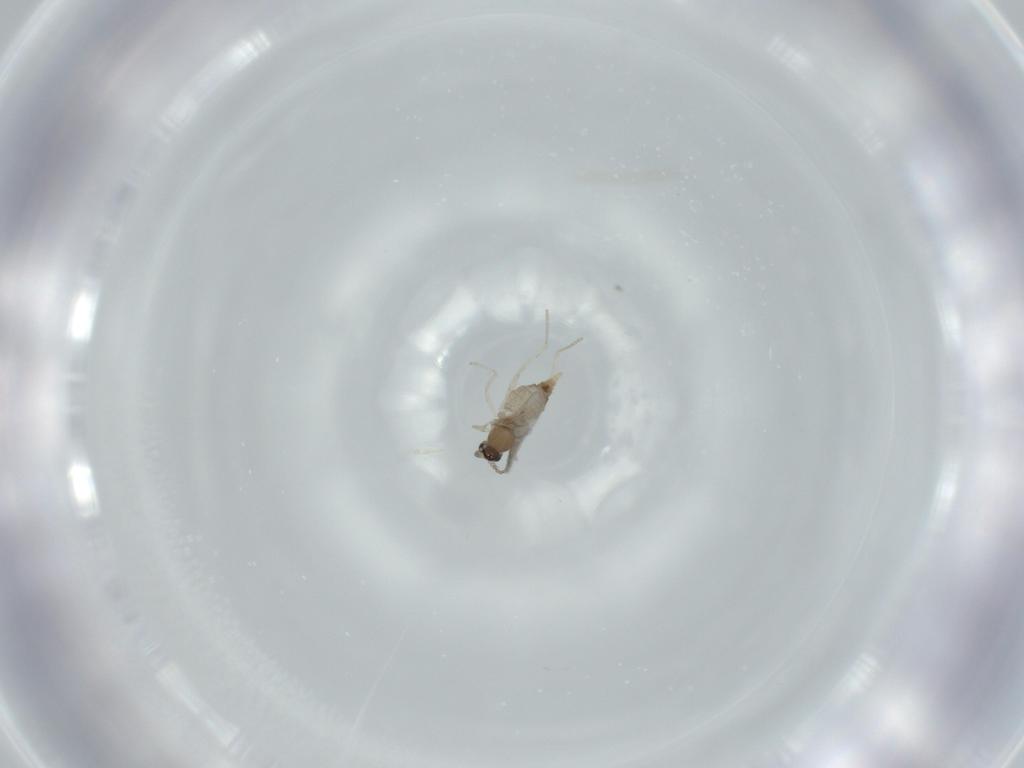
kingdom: Animalia
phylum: Arthropoda
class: Insecta
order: Diptera
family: Cecidomyiidae
